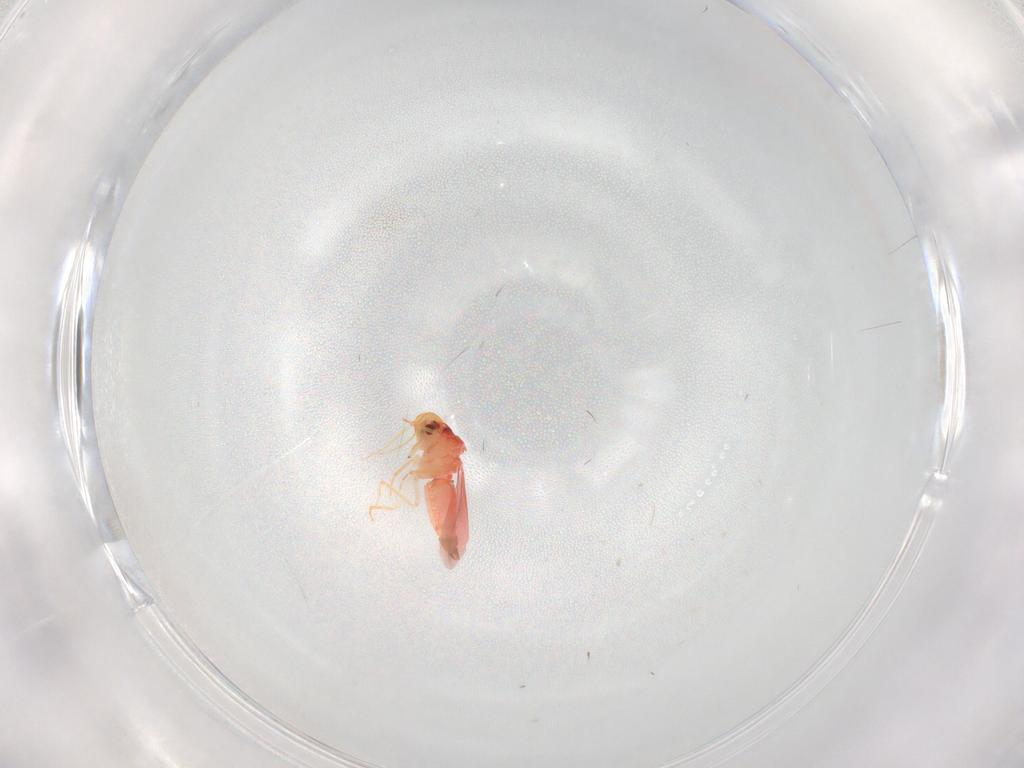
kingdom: Animalia
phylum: Arthropoda
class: Insecta
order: Hemiptera
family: Aleyrodidae
